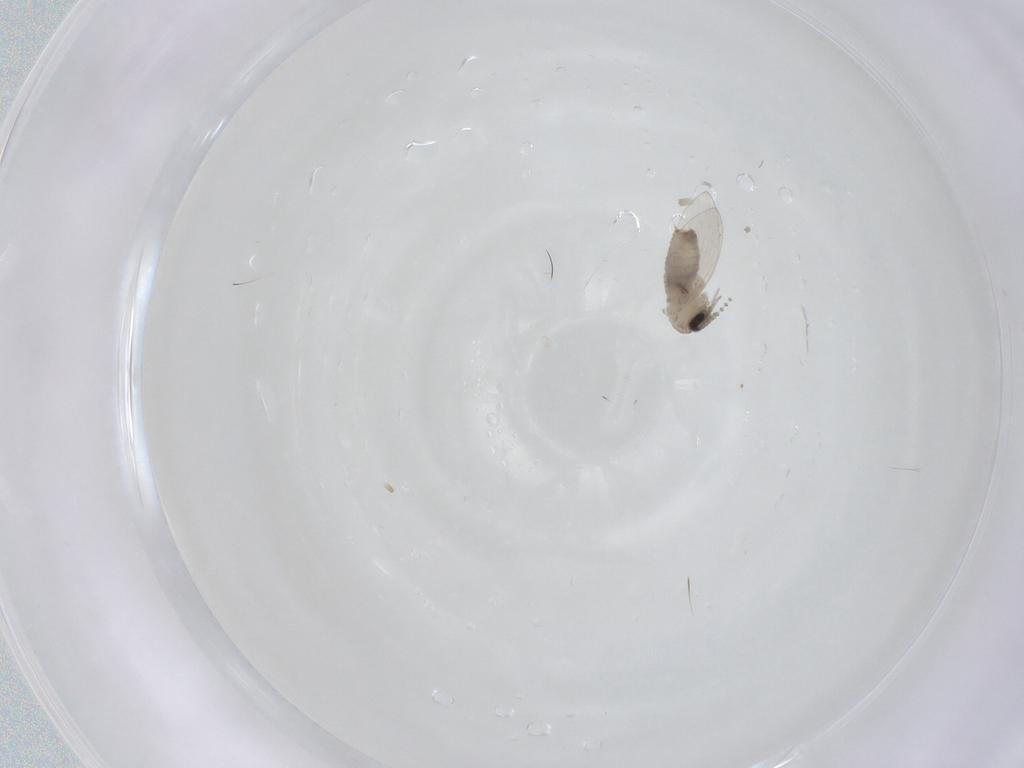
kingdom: Animalia
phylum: Arthropoda
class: Insecta
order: Diptera
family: Psychodidae
